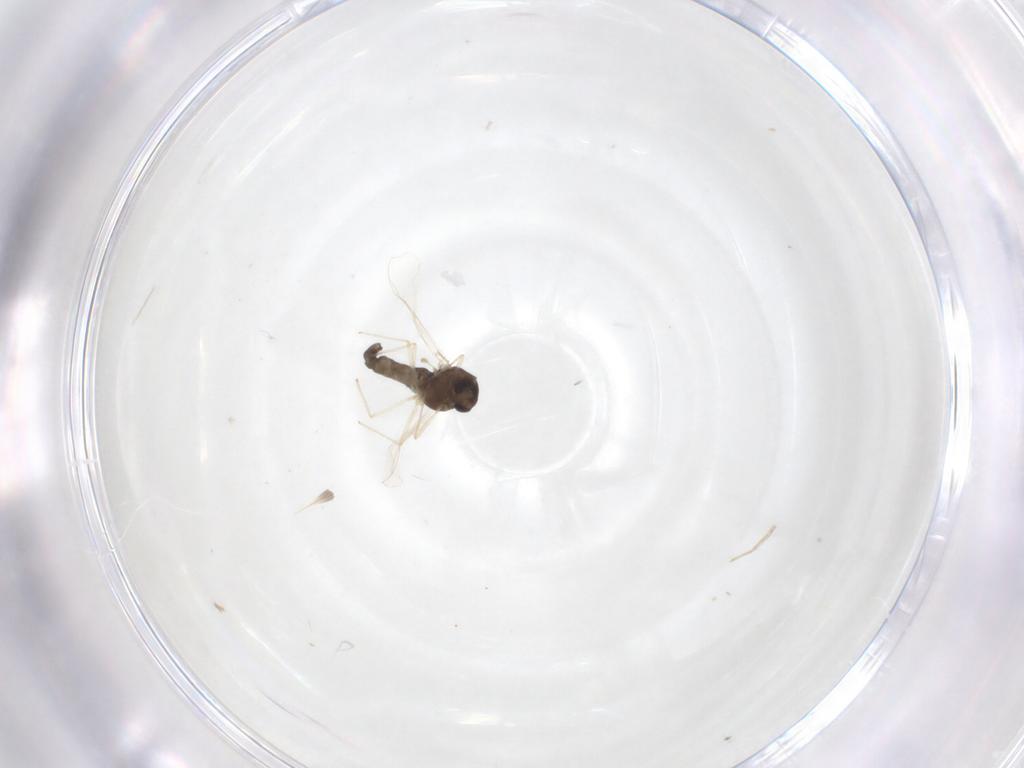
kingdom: Animalia
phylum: Arthropoda
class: Insecta
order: Diptera
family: Chironomidae
